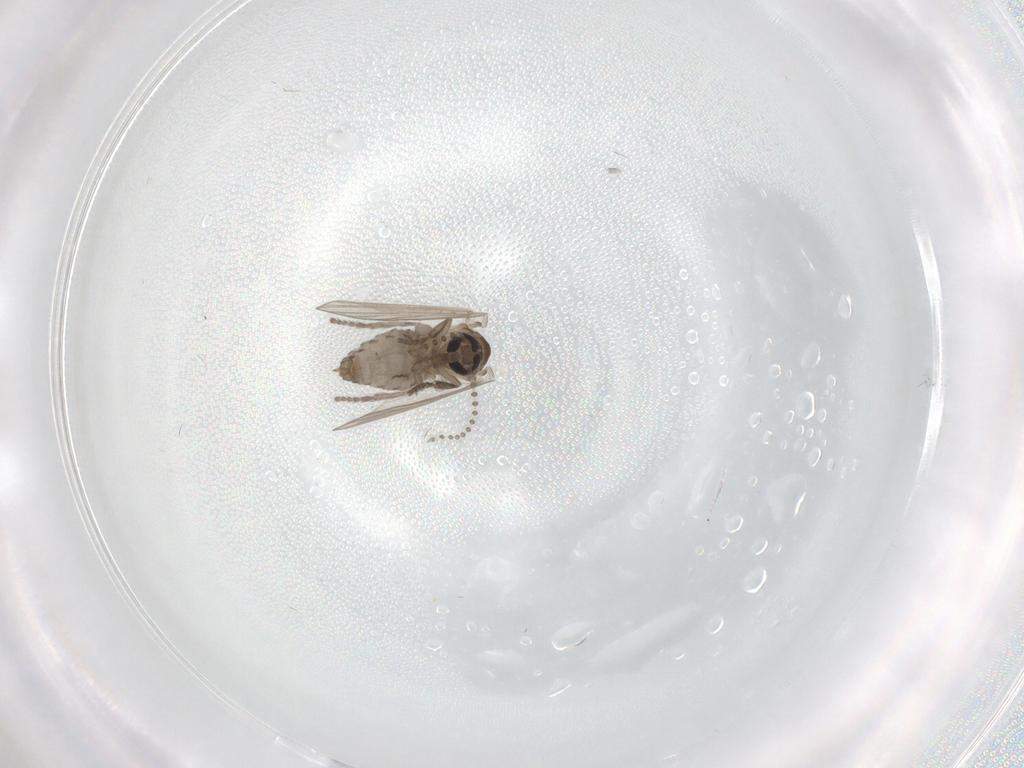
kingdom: Animalia
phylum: Arthropoda
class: Insecta
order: Diptera
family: Psychodidae
